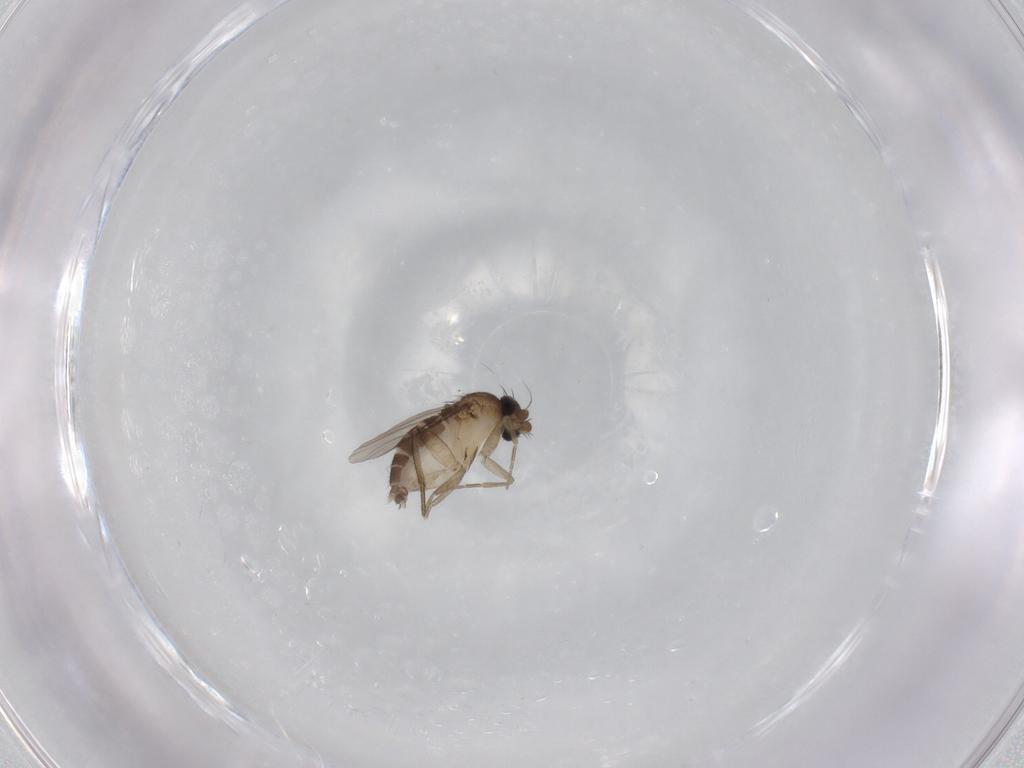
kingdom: Animalia
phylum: Arthropoda
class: Insecta
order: Diptera
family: Phoridae
